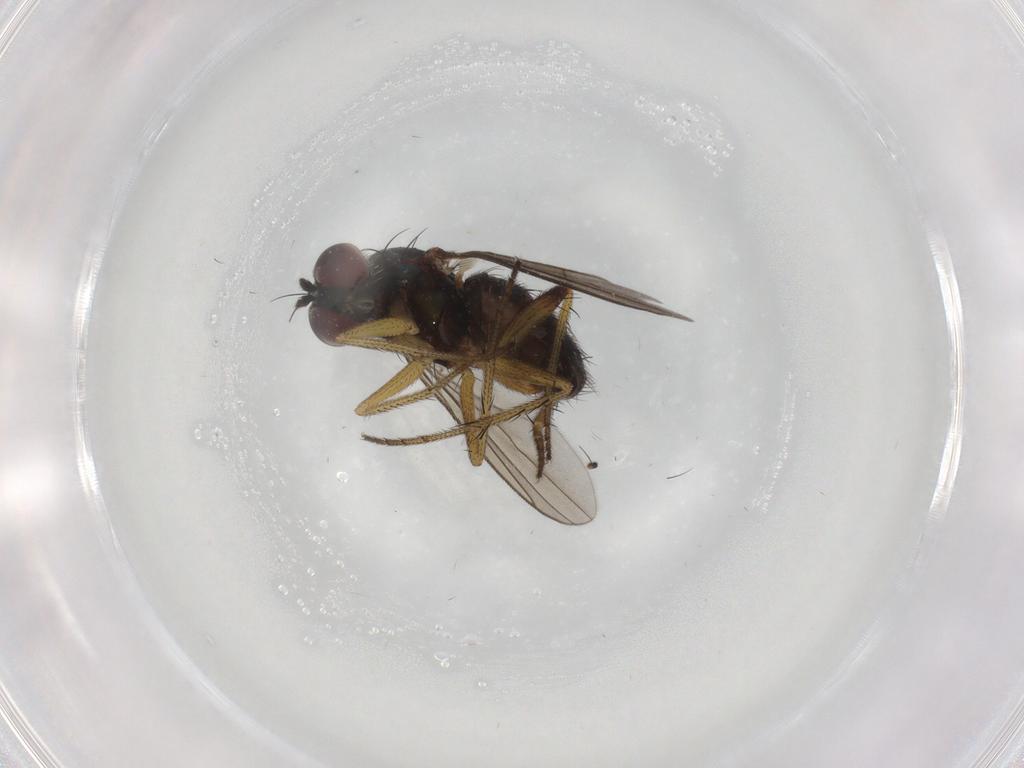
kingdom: Animalia
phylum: Arthropoda
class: Insecta
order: Diptera
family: Dolichopodidae
